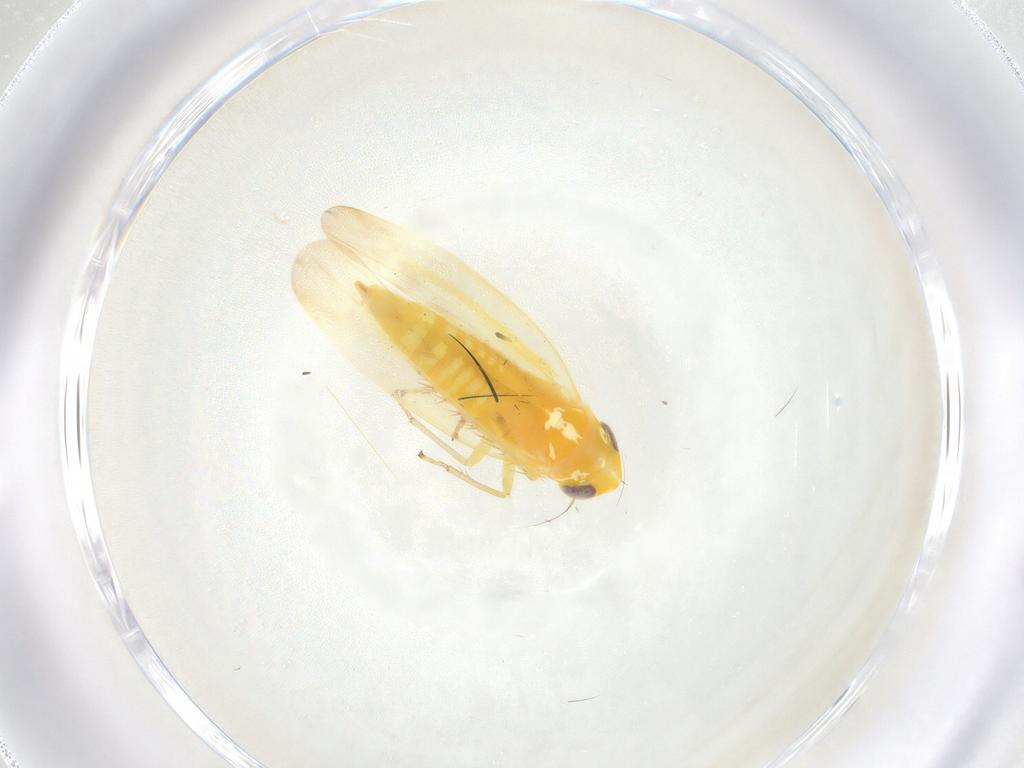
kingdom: Animalia
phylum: Arthropoda
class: Insecta
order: Hemiptera
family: Cicadellidae
